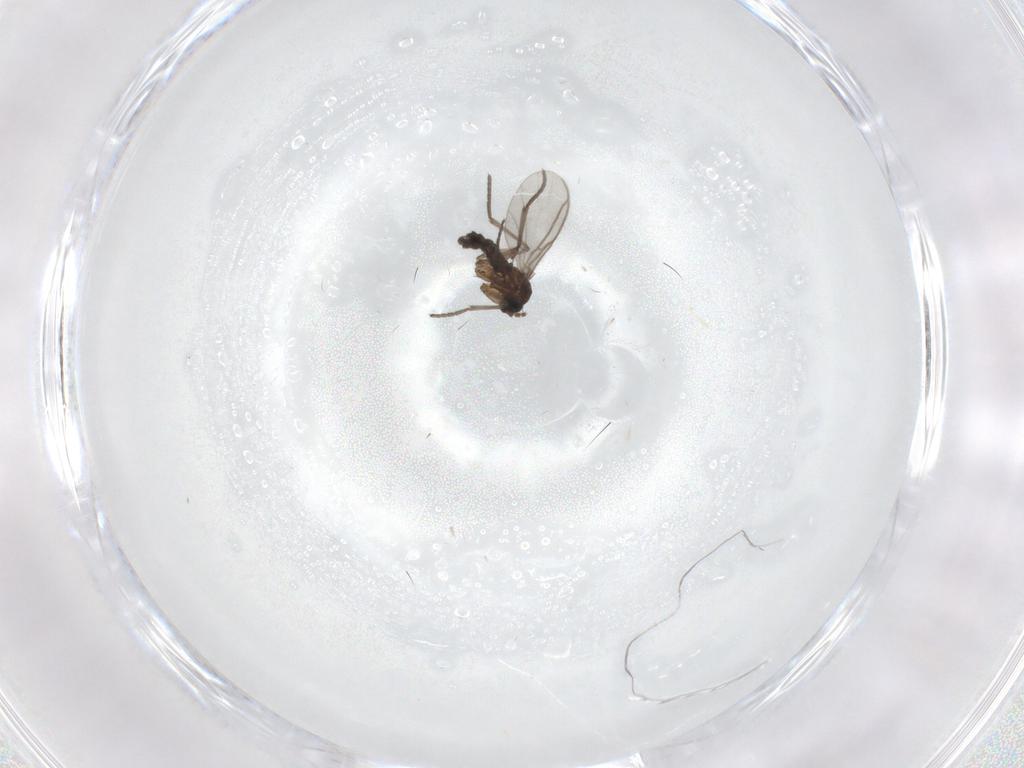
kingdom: Animalia
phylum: Arthropoda
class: Insecta
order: Diptera
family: Sciaridae
